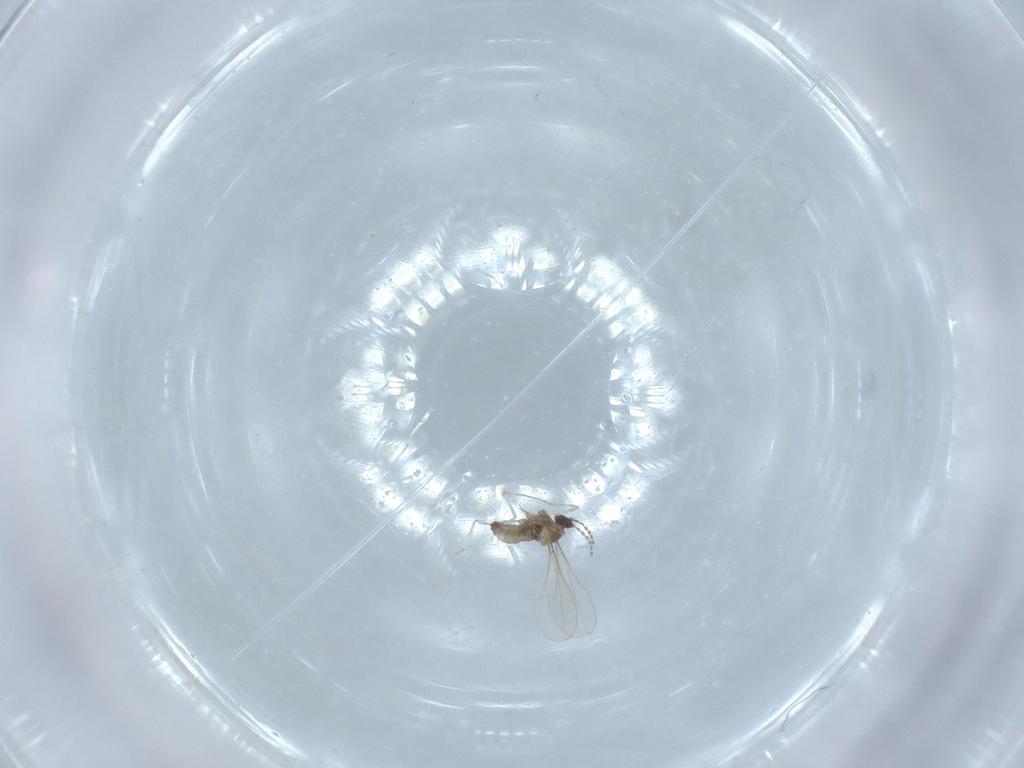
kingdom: Animalia
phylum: Arthropoda
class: Insecta
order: Diptera
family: Cecidomyiidae
